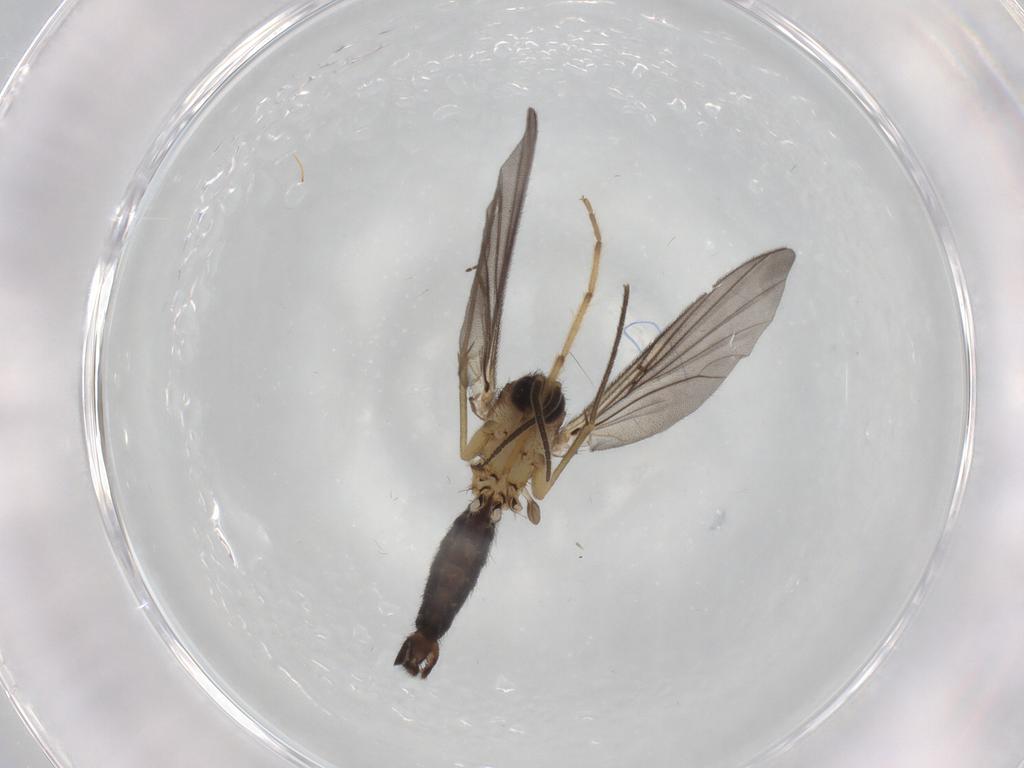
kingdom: Animalia
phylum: Arthropoda
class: Insecta
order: Diptera
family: Mycetophilidae
